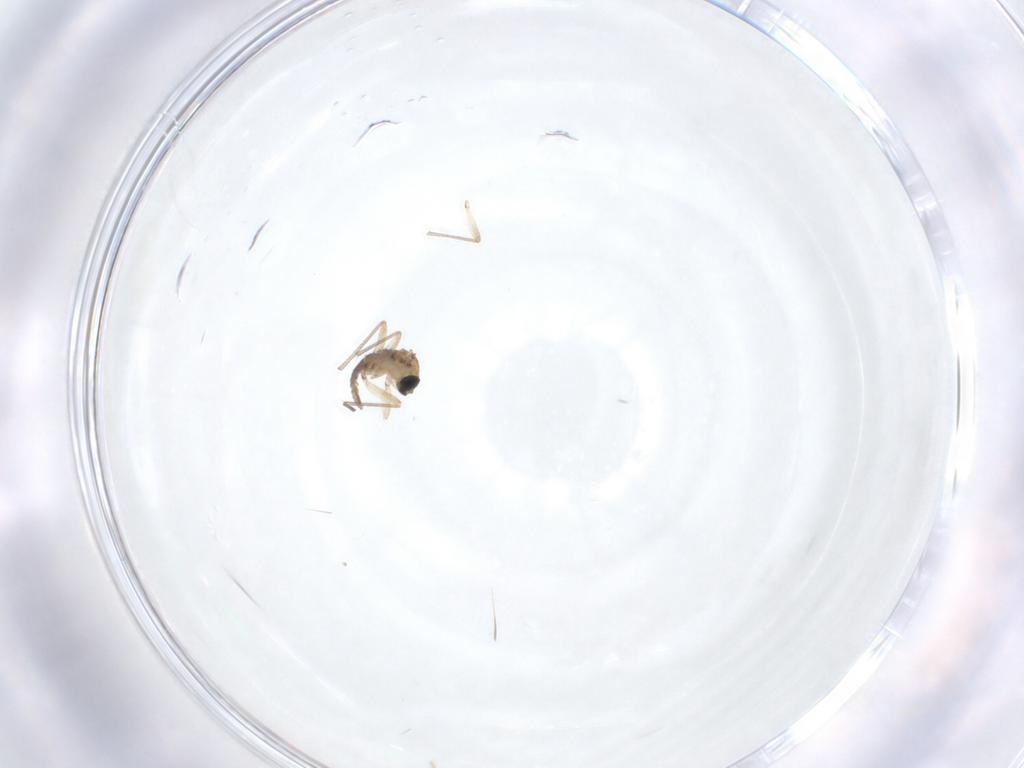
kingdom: Animalia
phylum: Arthropoda
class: Insecta
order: Diptera
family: Sciaridae
